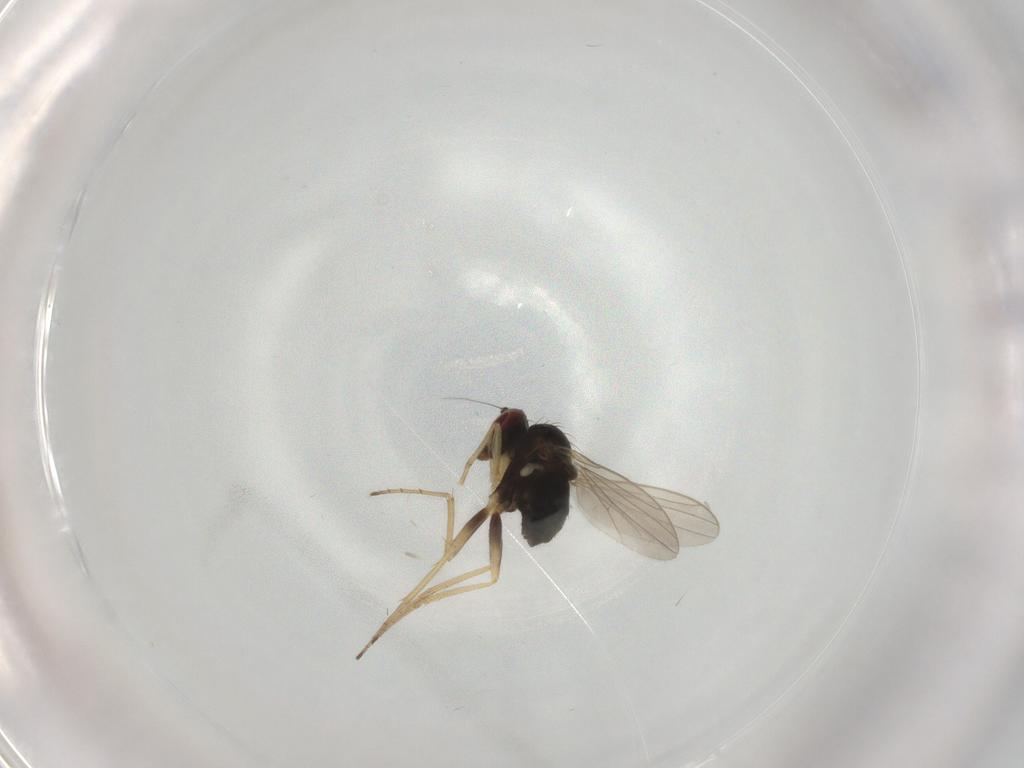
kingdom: Animalia
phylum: Arthropoda
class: Insecta
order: Diptera
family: Dolichopodidae
